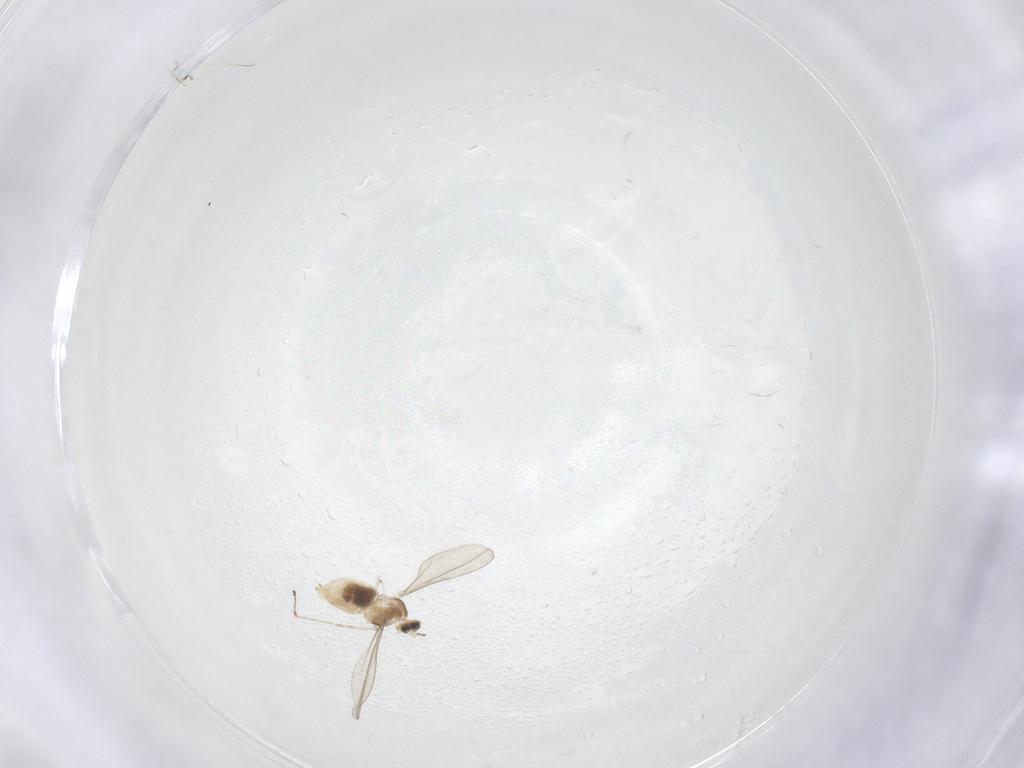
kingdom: Animalia
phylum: Arthropoda
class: Insecta
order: Diptera
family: Cecidomyiidae
